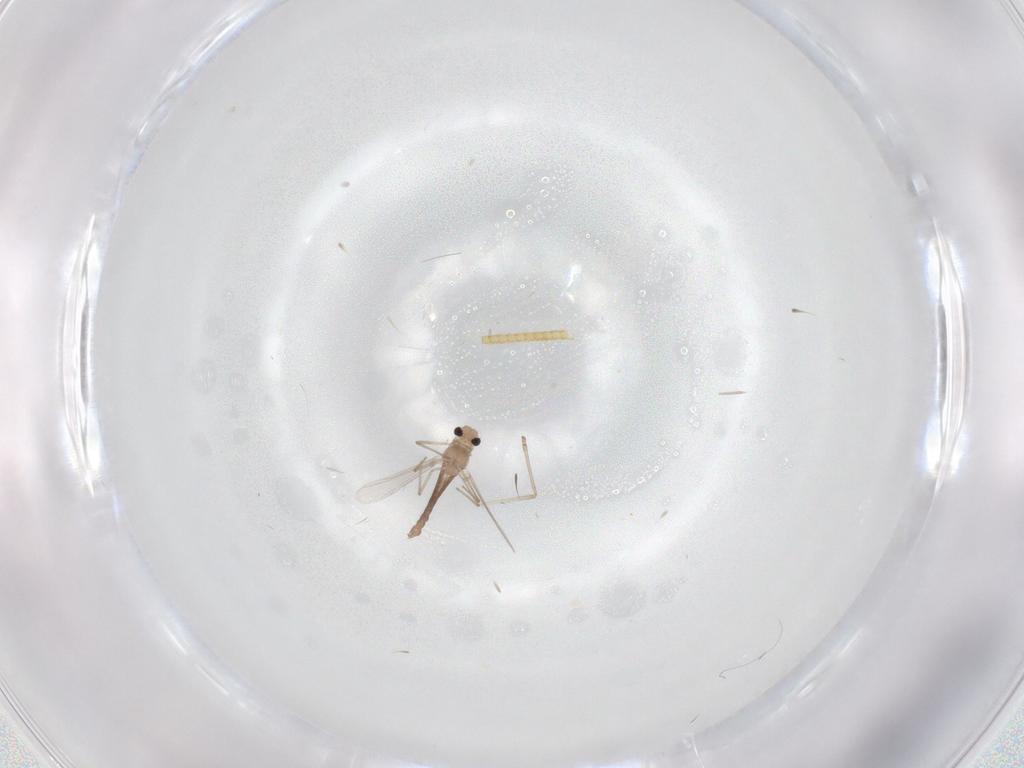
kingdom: Animalia
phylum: Arthropoda
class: Insecta
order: Diptera
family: Chironomidae
